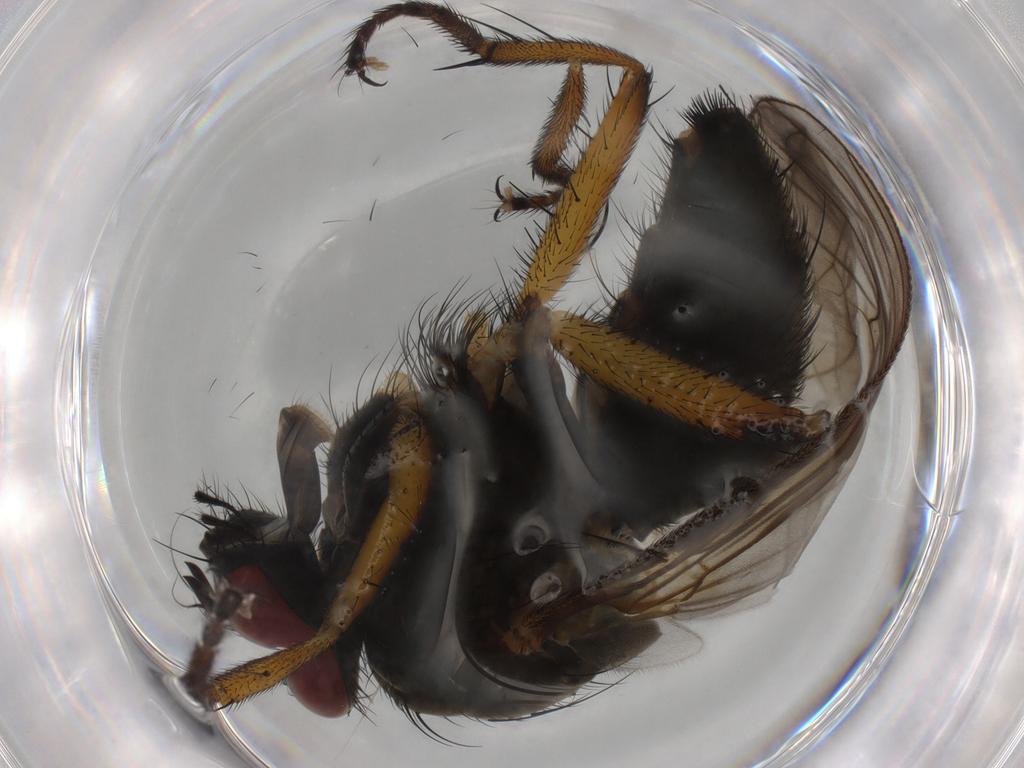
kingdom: Animalia
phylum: Arthropoda
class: Insecta
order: Diptera
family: Muscidae
